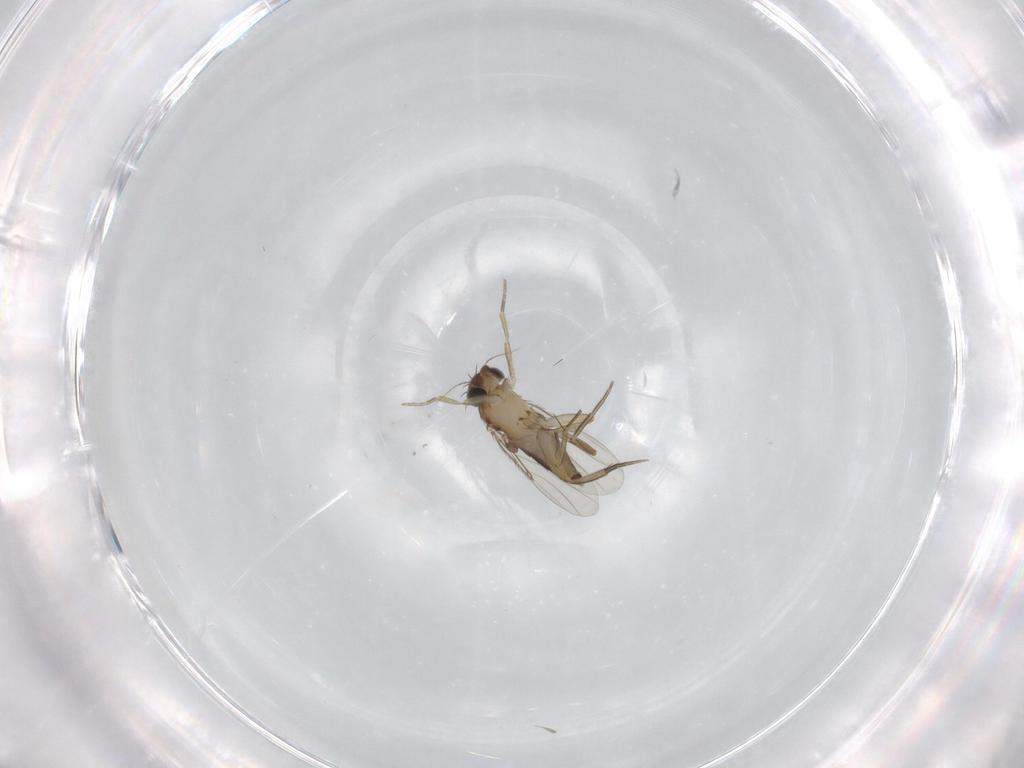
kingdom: Animalia
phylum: Arthropoda
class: Insecta
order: Diptera
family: Phoridae
